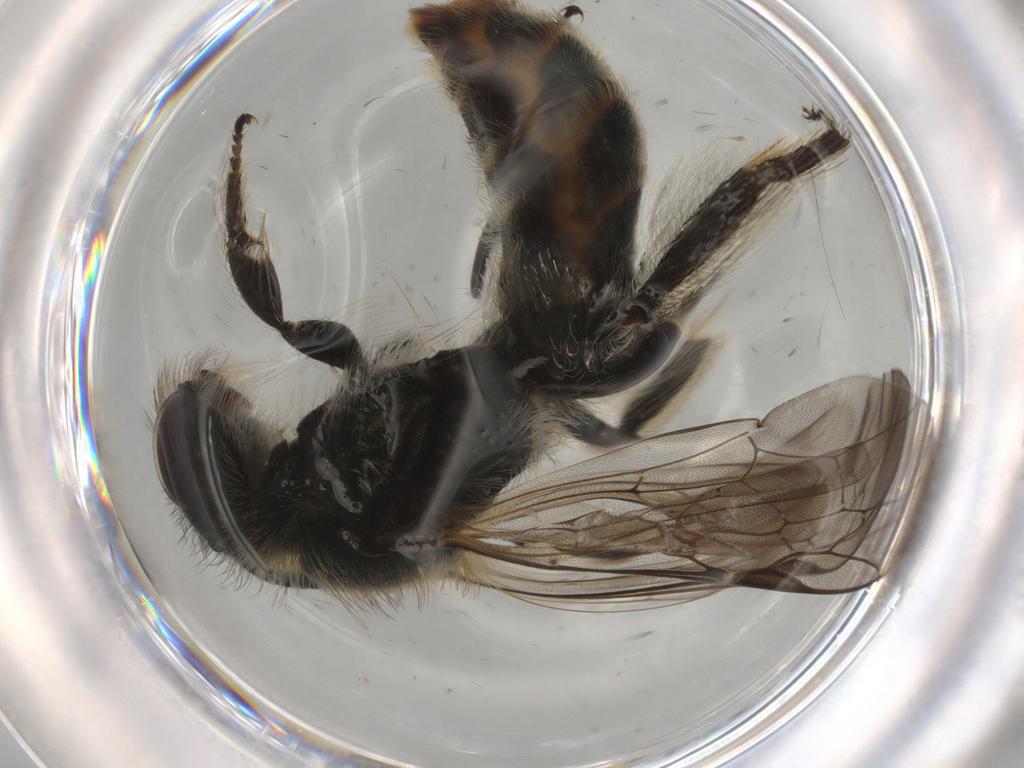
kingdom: Animalia
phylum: Arthropoda
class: Insecta
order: Hymenoptera
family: Halictidae
